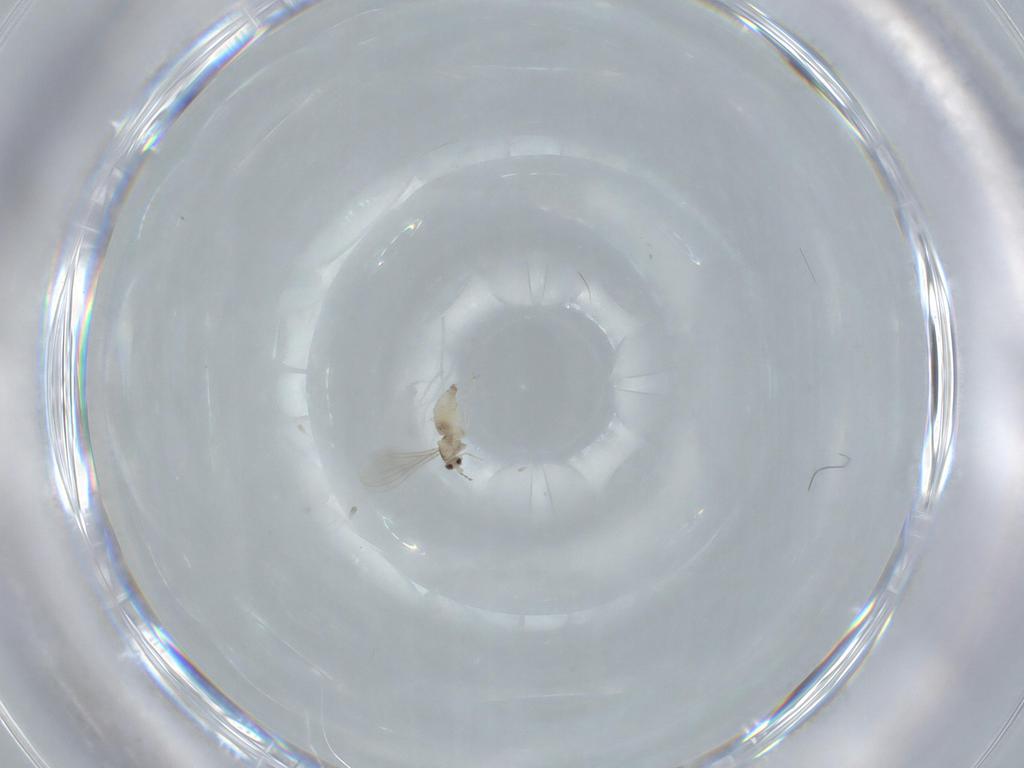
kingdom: Animalia
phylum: Arthropoda
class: Insecta
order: Diptera
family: Cecidomyiidae
